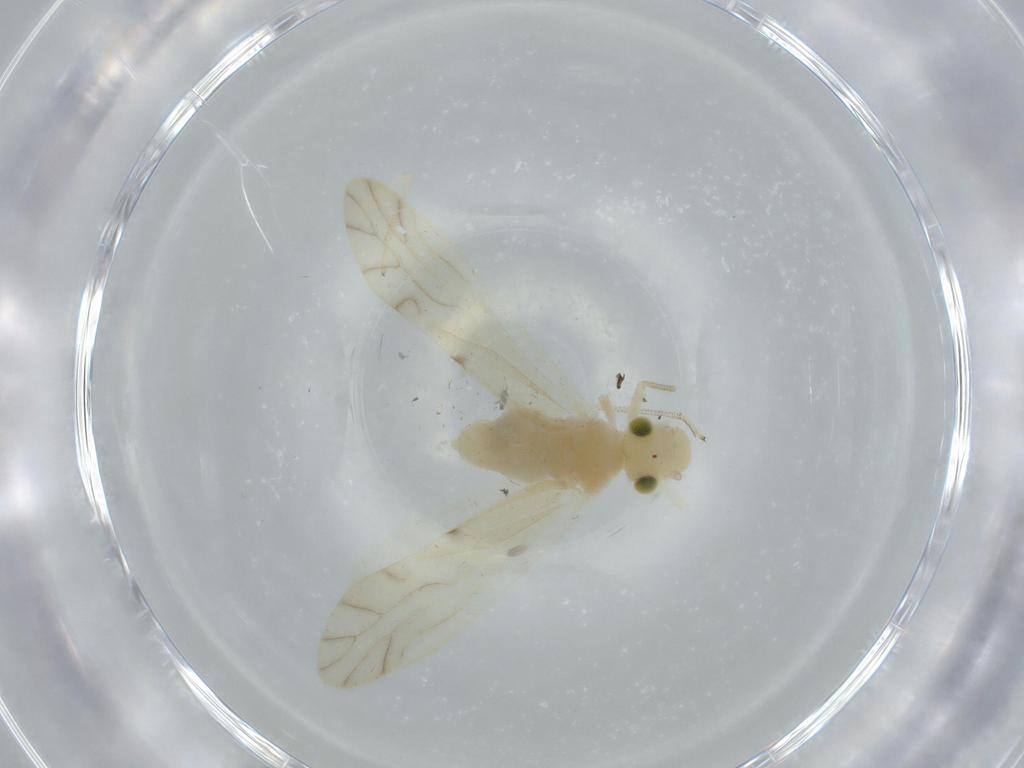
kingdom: Animalia
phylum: Arthropoda
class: Insecta
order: Psocodea
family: Caeciliusidae
